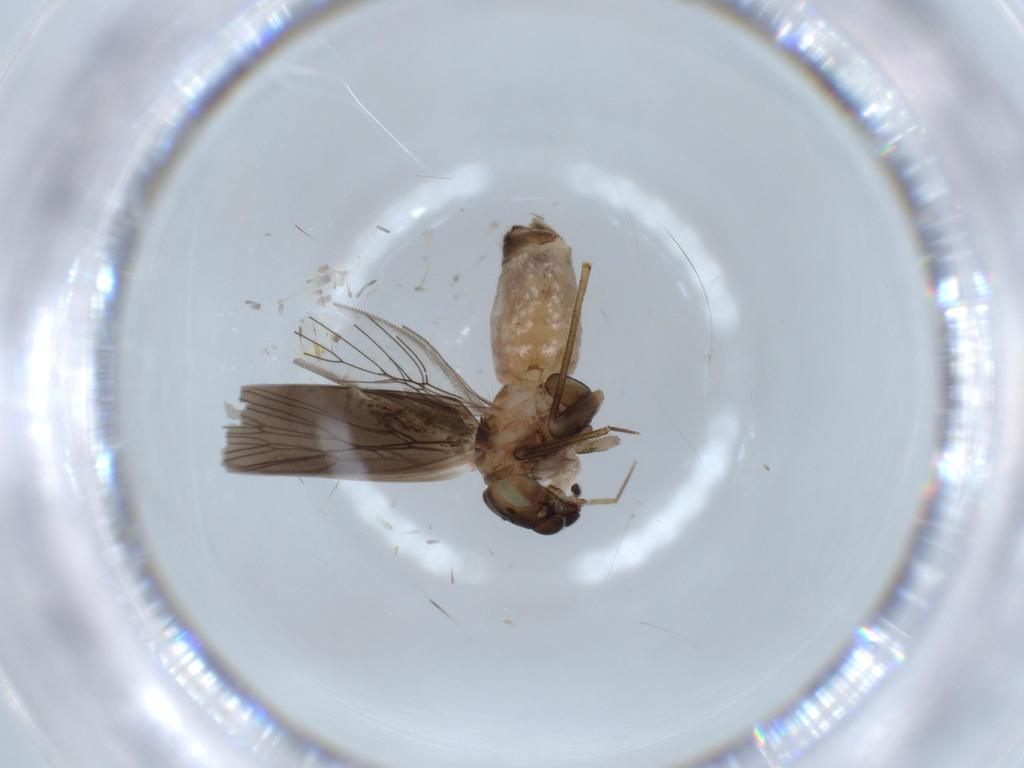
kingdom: Animalia
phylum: Arthropoda
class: Insecta
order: Psocodea
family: Lepidopsocidae
